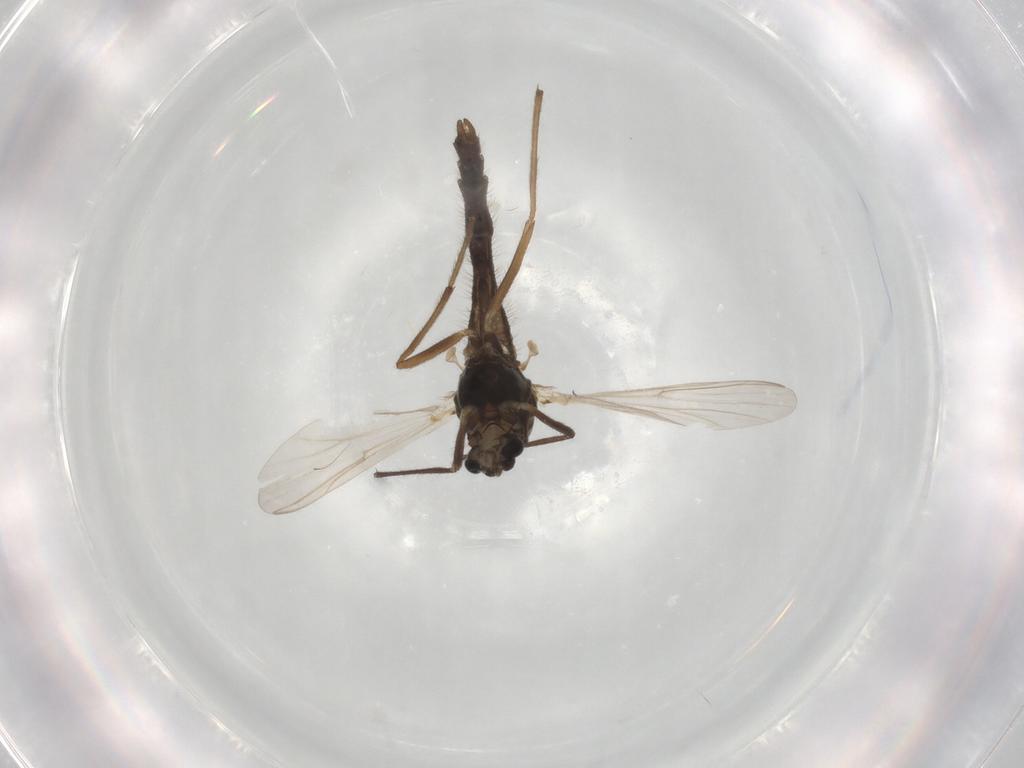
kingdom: Animalia
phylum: Arthropoda
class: Insecta
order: Diptera
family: Chironomidae
